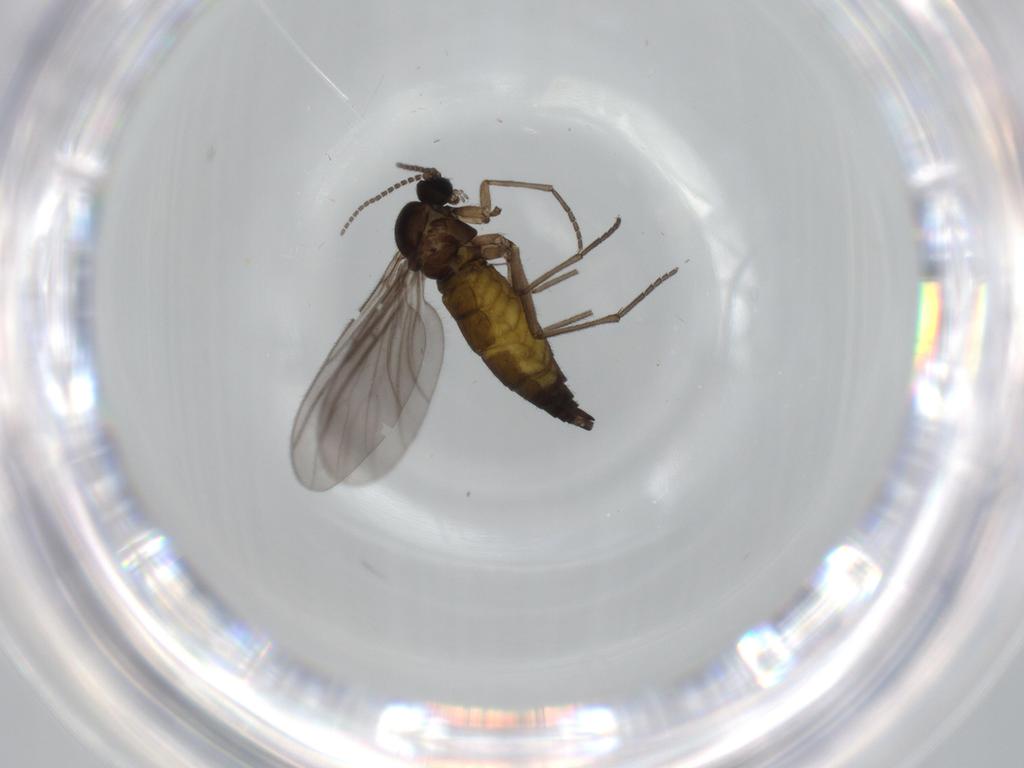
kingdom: Animalia
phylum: Arthropoda
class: Insecta
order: Diptera
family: Sciaridae
